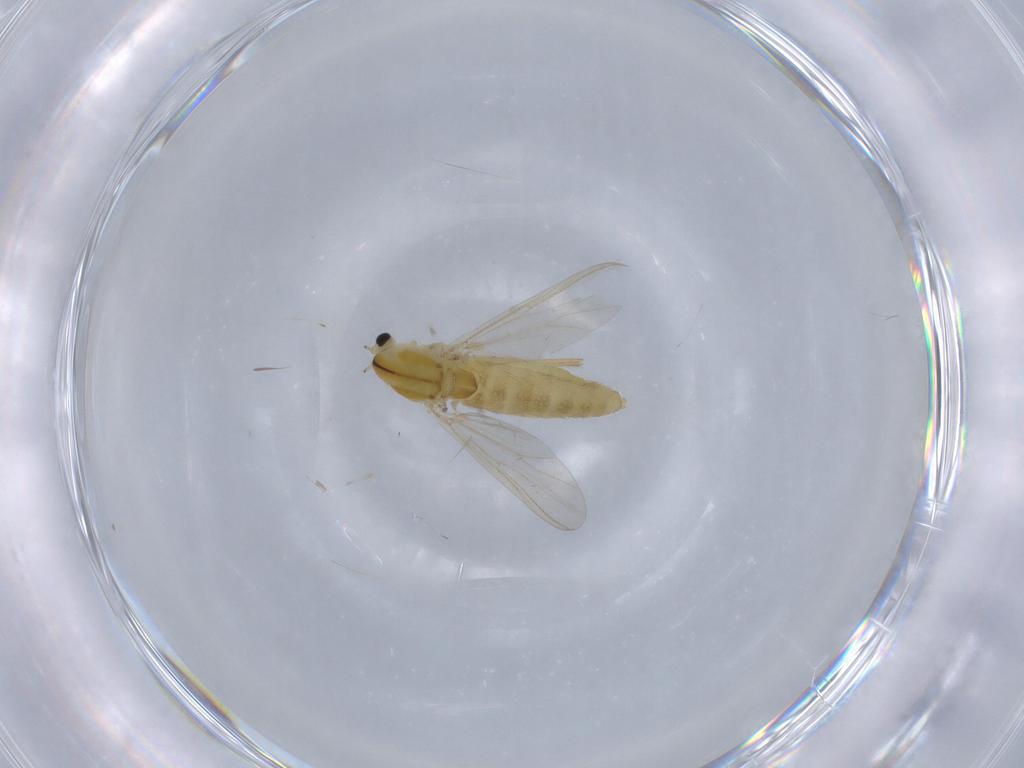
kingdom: Animalia
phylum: Arthropoda
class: Insecta
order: Diptera
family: Chironomidae
